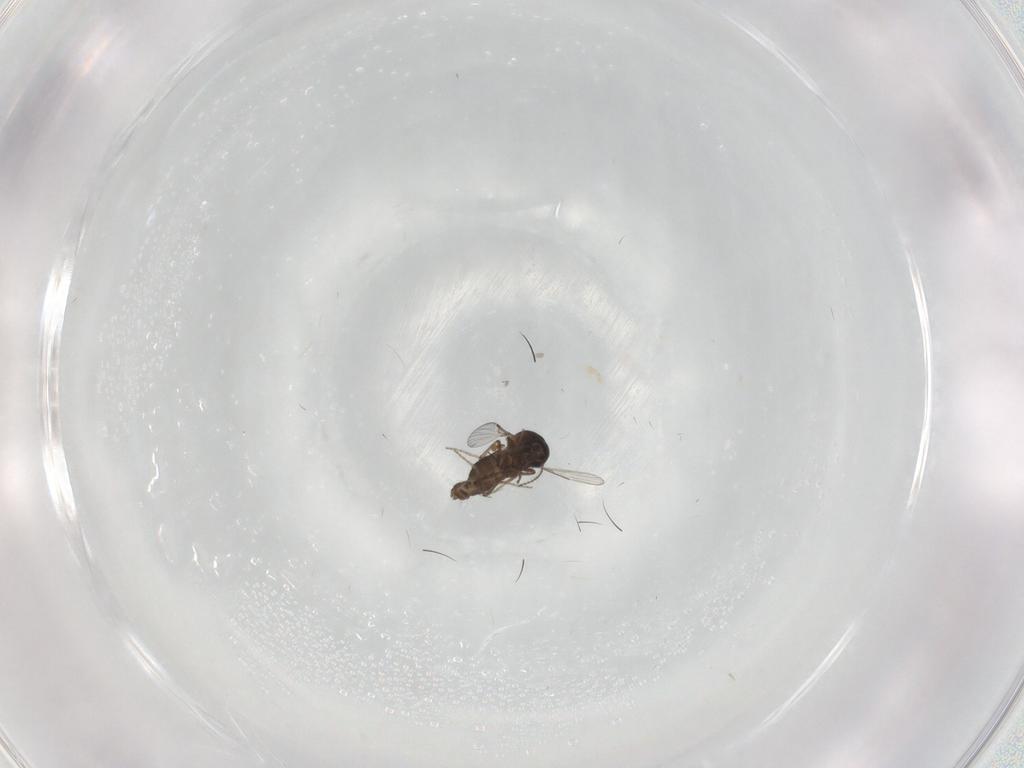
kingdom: Animalia
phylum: Arthropoda
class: Insecta
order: Diptera
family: Ceratopogonidae
